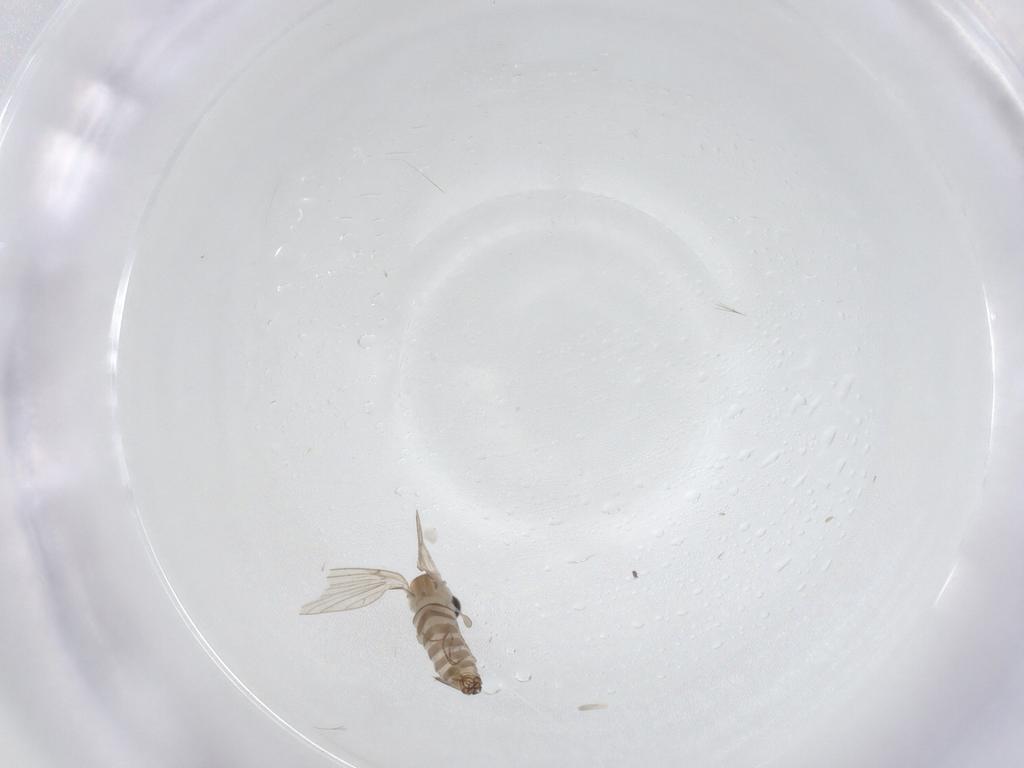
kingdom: Animalia
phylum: Arthropoda
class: Insecta
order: Diptera
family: Psychodidae
